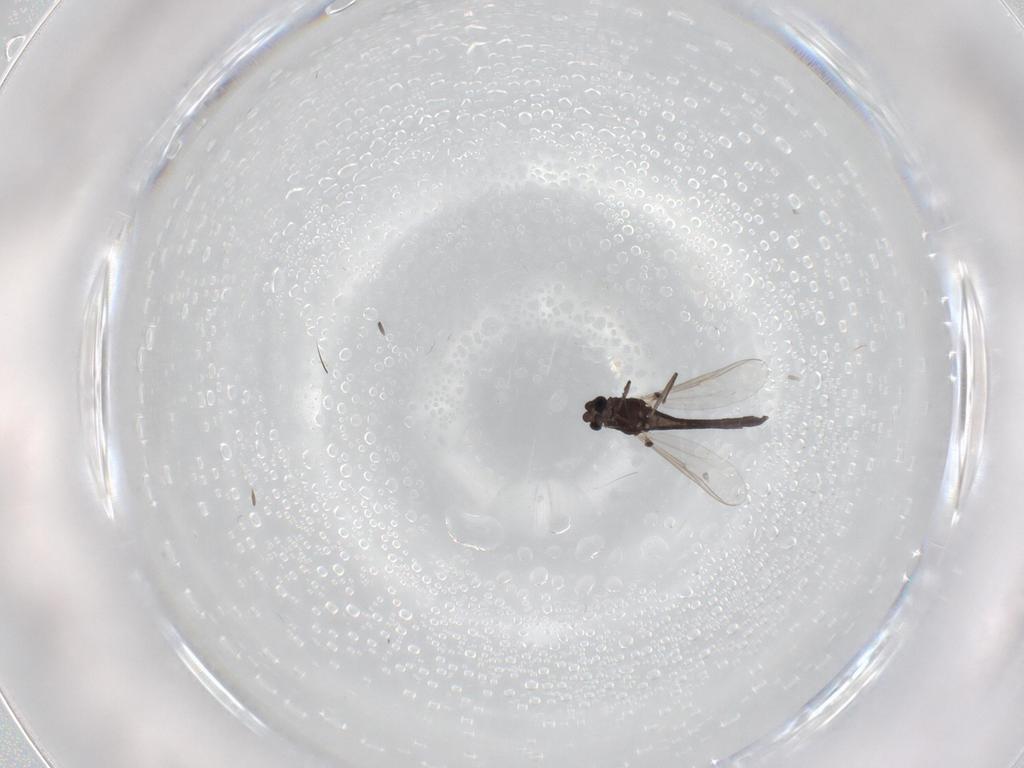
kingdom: Animalia
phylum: Arthropoda
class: Insecta
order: Diptera
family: Chironomidae
